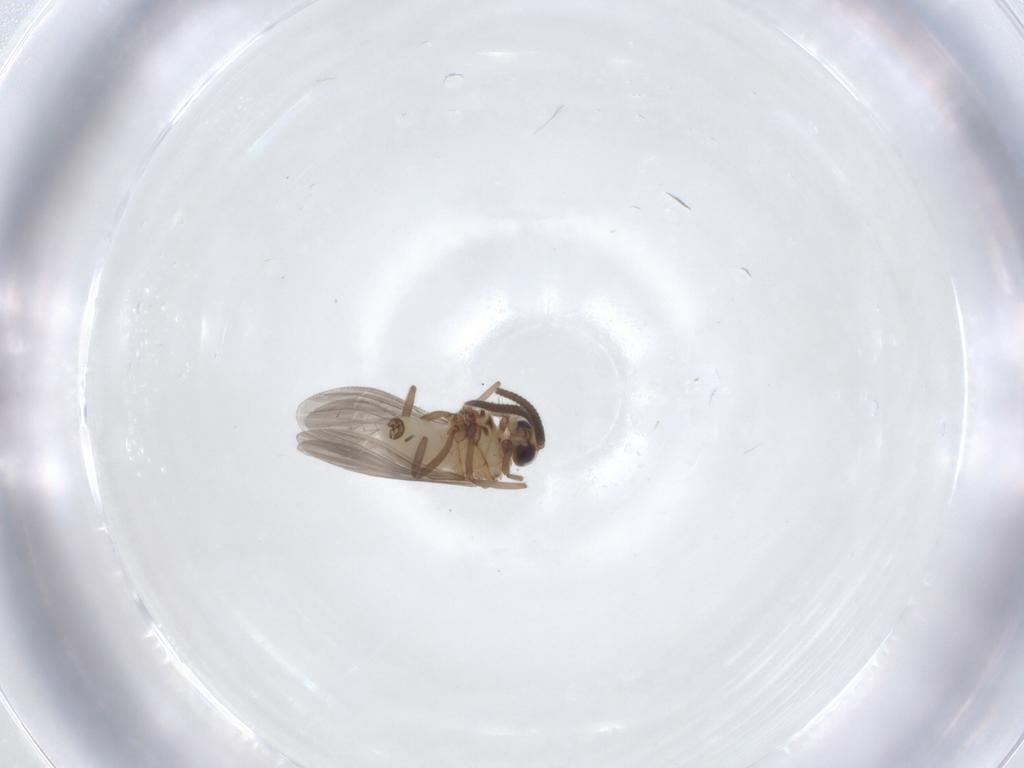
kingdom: Animalia
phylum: Arthropoda
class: Insecta
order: Neuroptera
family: Coniopterygidae
